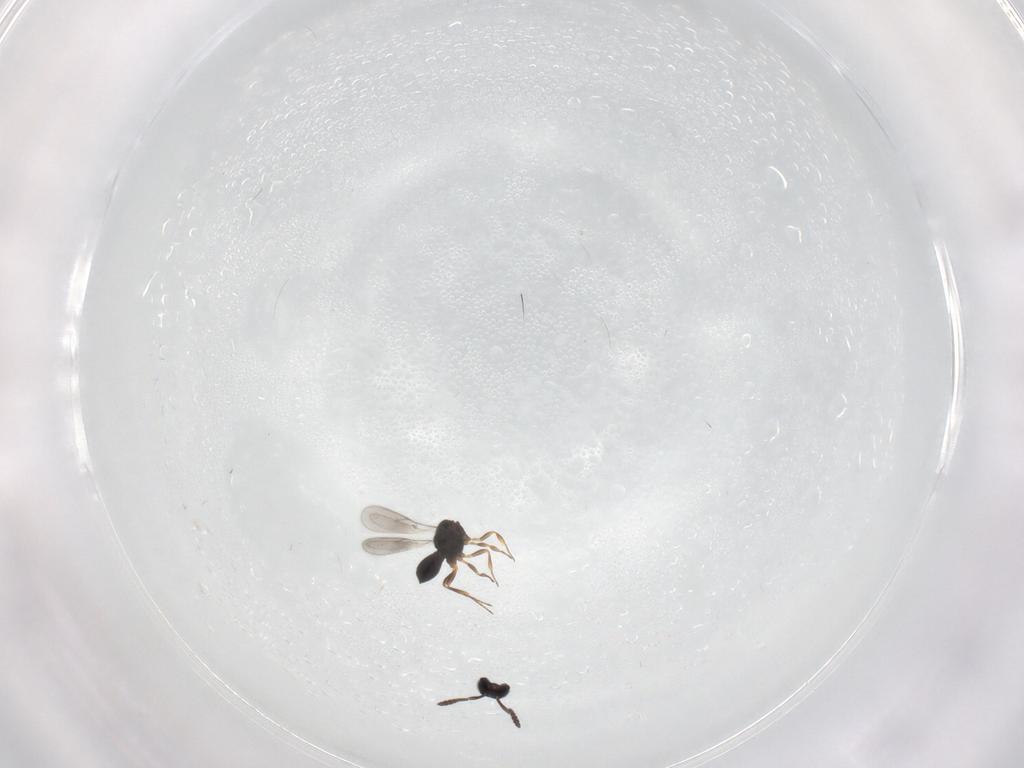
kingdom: Animalia
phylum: Arthropoda
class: Insecta
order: Hymenoptera
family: Scelionidae
